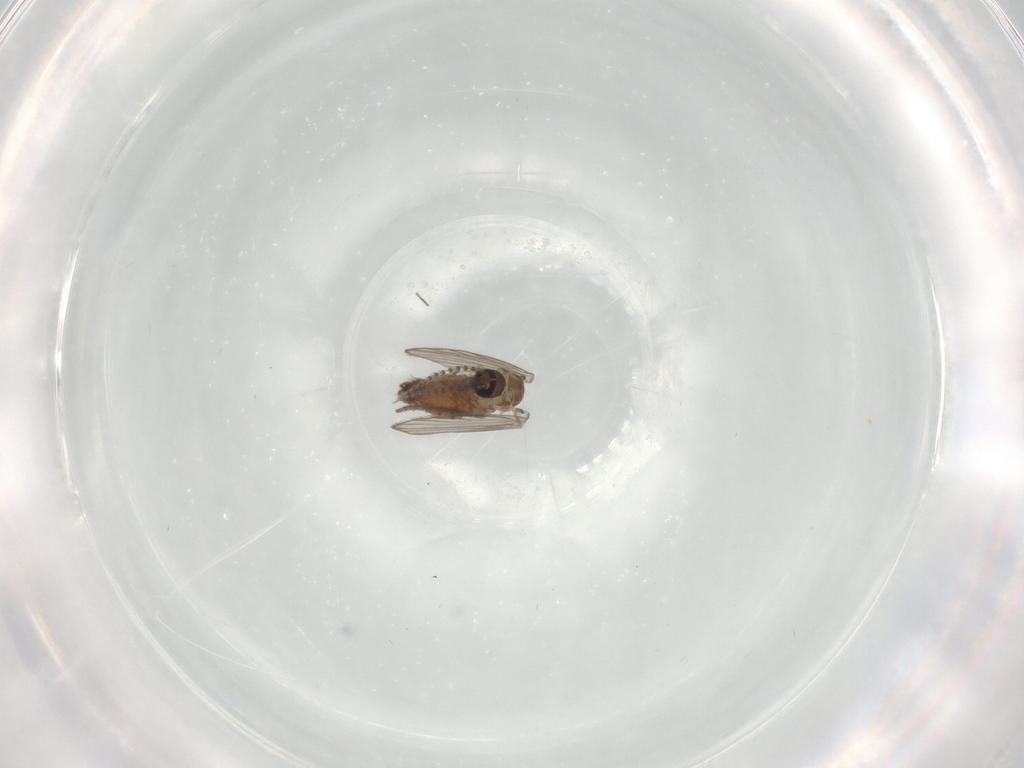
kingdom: Animalia
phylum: Arthropoda
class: Insecta
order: Diptera
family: Psychodidae
